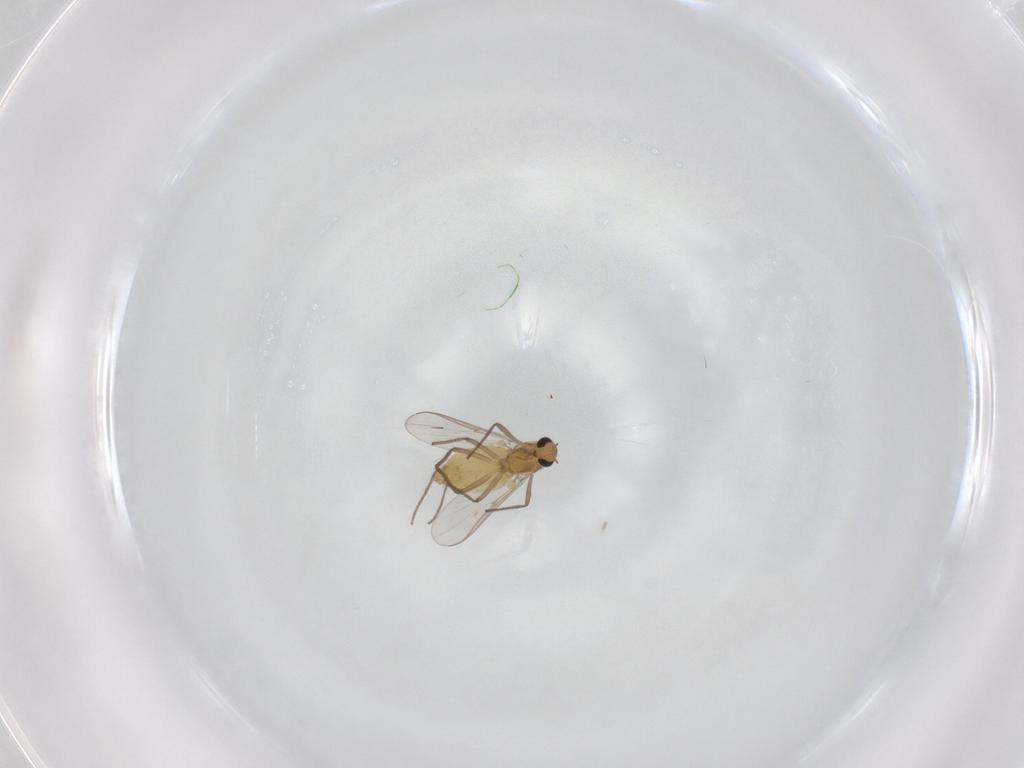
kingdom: Animalia
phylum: Arthropoda
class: Insecta
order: Diptera
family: Chironomidae
